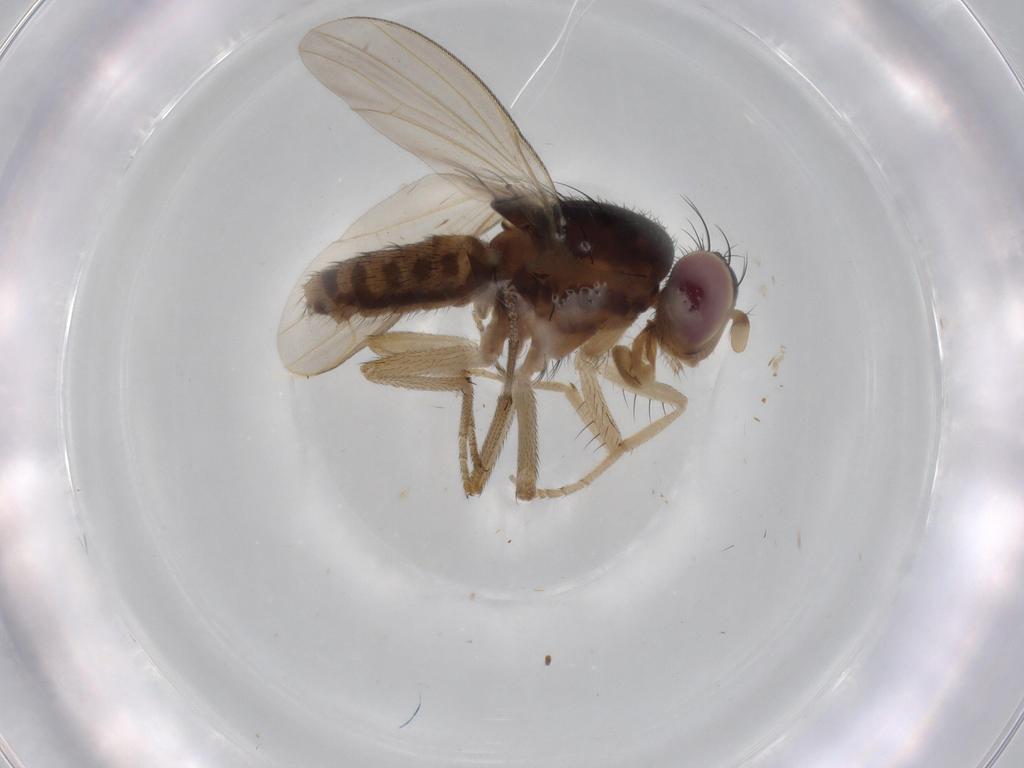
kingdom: Animalia
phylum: Arthropoda
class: Insecta
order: Diptera
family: Sciaridae
